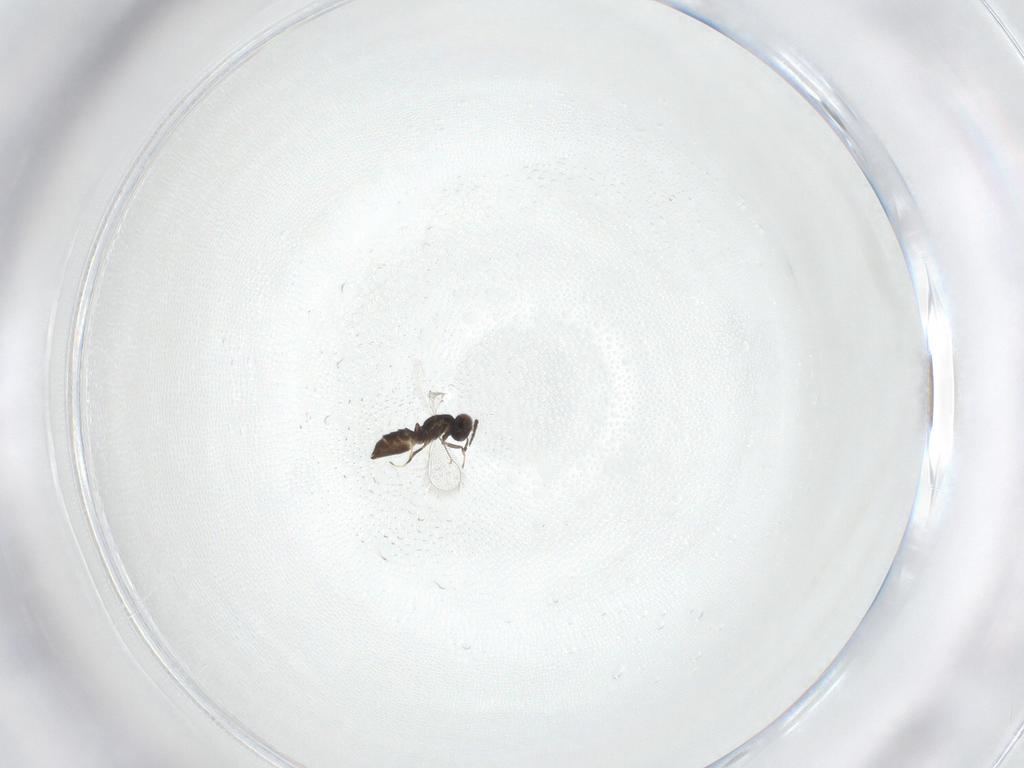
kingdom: Animalia
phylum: Arthropoda
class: Insecta
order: Hymenoptera
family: Eulophidae
